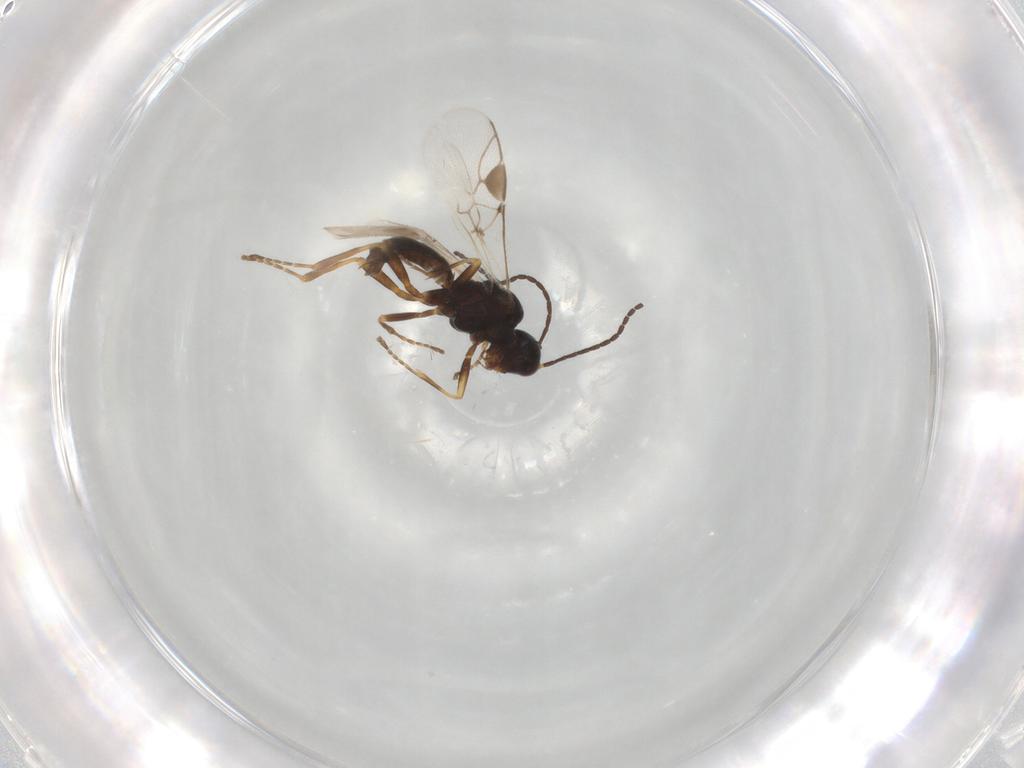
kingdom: Animalia
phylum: Arthropoda
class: Insecta
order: Hymenoptera
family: Braconidae
